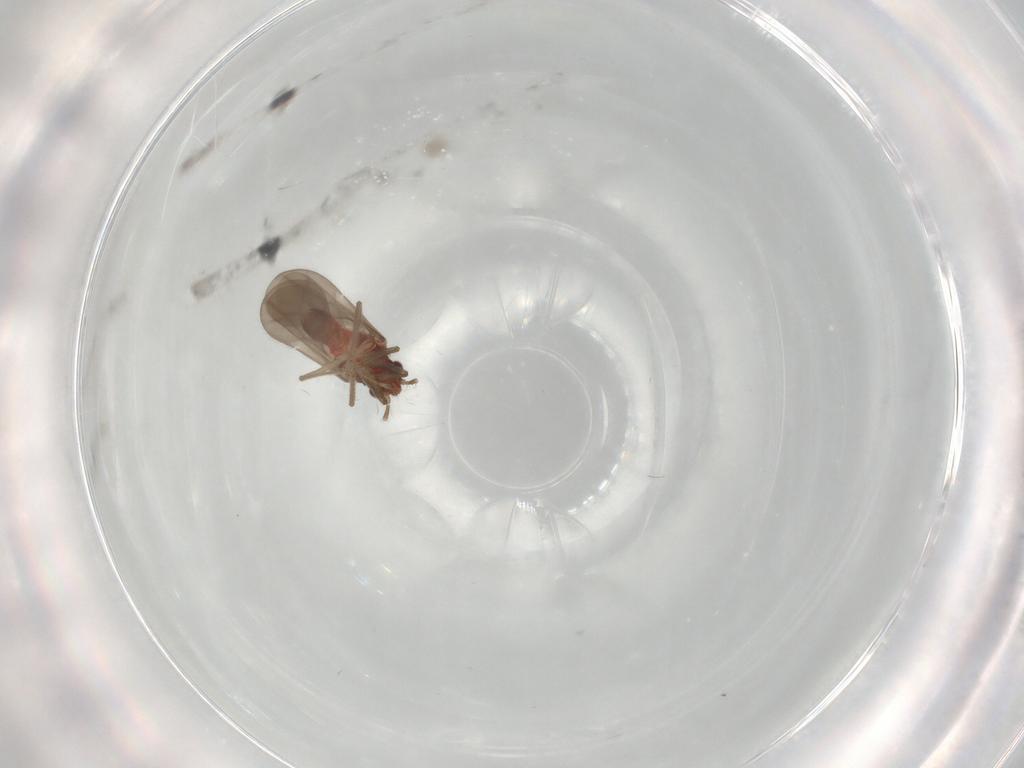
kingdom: Animalia
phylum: Arthropoda
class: Insecta
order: Hemiptera
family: Ceratocombidae
